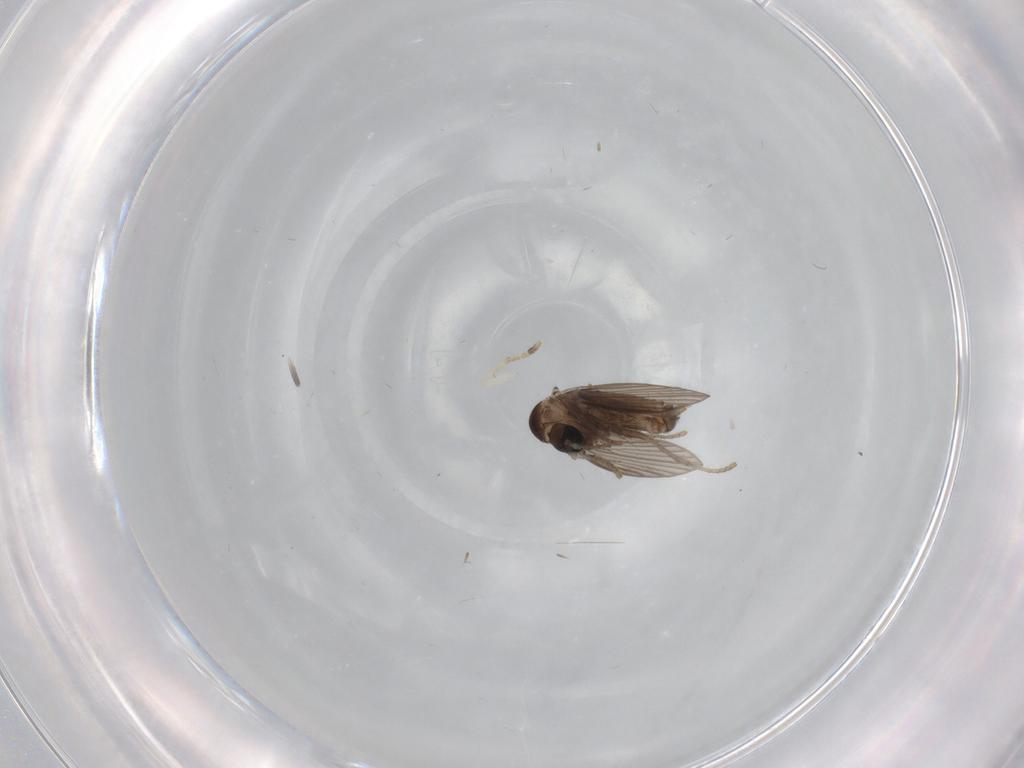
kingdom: Animalia
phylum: Arthropoda
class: Insecta
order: Diptera
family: Psychodidae
